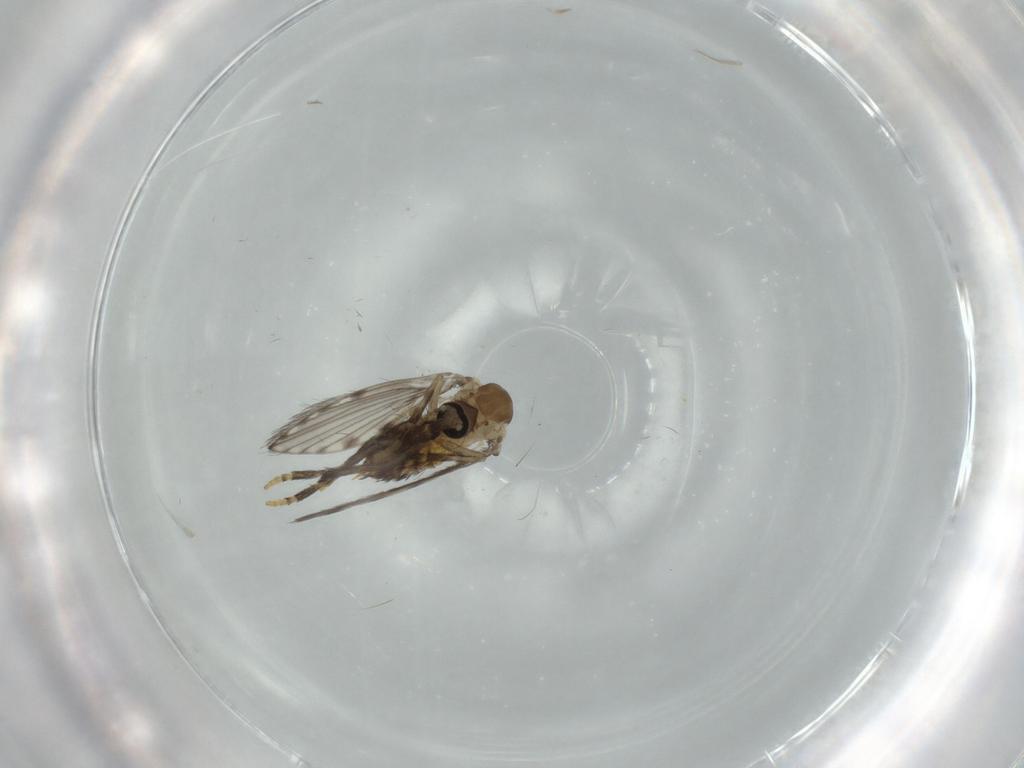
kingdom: Animalia
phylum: Arthropoda
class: Insecta
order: Diptera
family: Psychodidae
